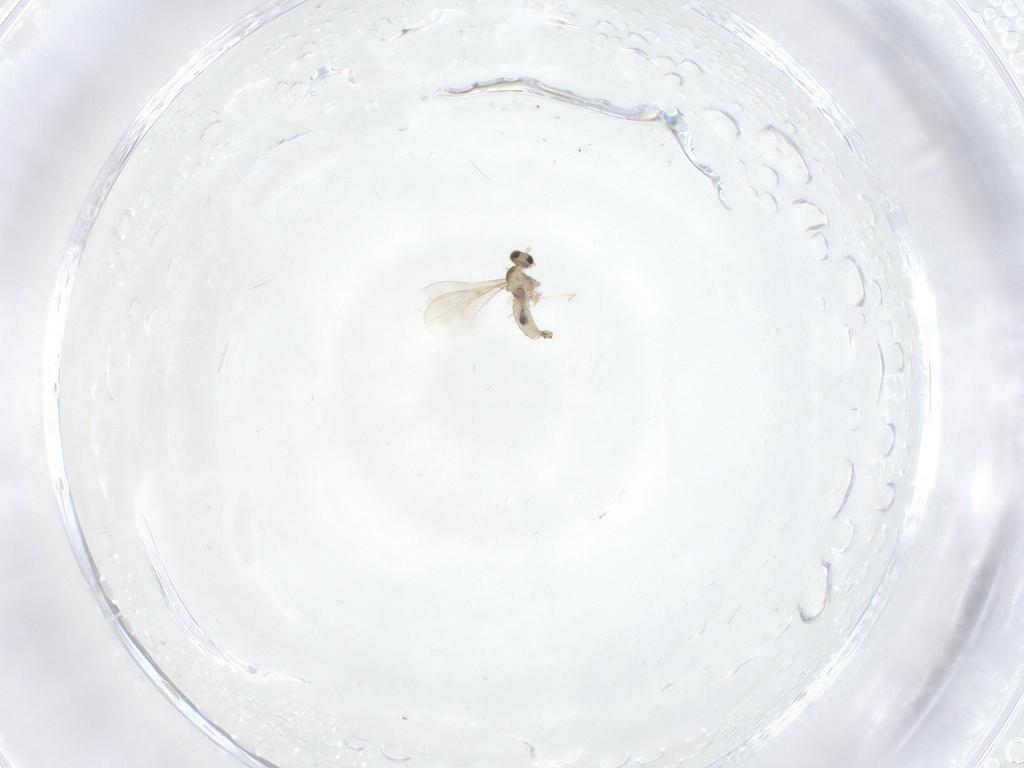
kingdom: Animalia
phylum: Arthropoda
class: Insecta
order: Diptera
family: Cecidomyiidae
